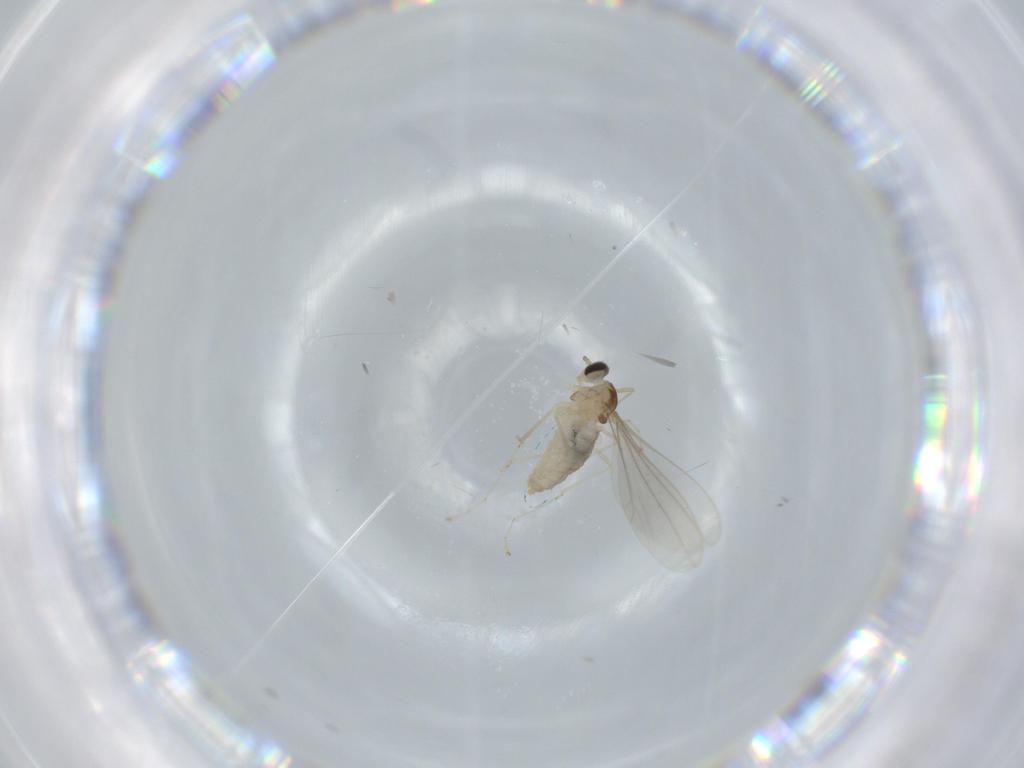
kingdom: Animalia
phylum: Arthropoda
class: Insecta
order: Diptera
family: Cecidomyiidae
